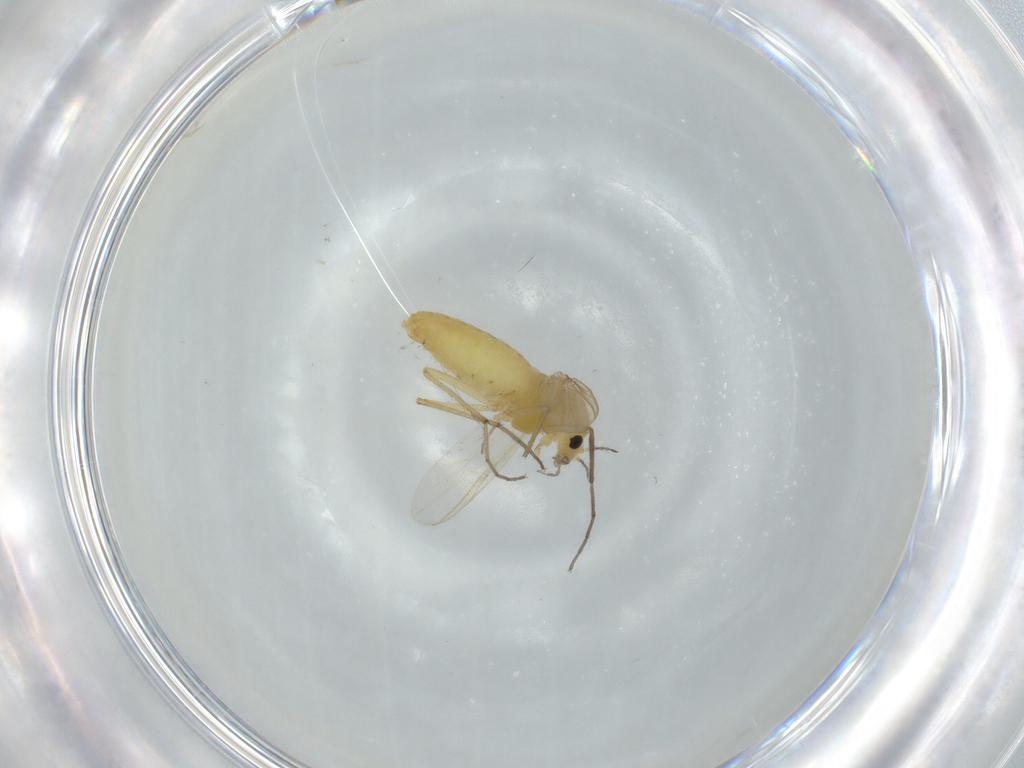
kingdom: Animalia
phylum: Arthropoda
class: Insecta
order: Diptera
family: Chironomidae
